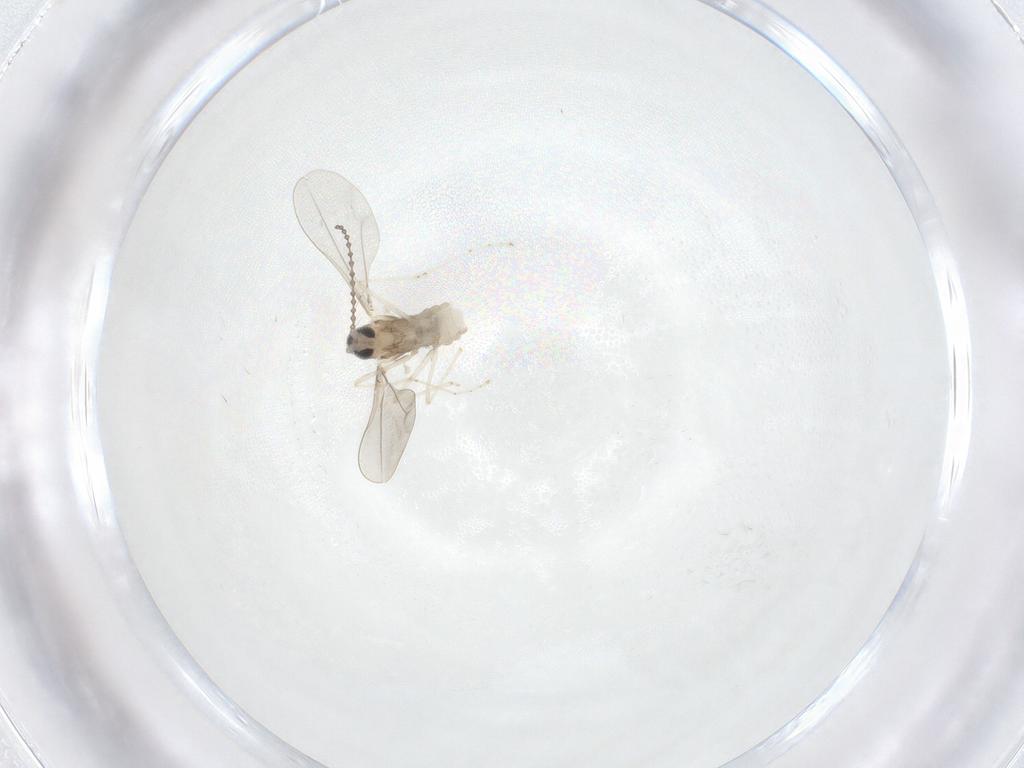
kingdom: Animalia
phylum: Arthropoda
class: Insecta
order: Diptera
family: Cecidomyiidae
